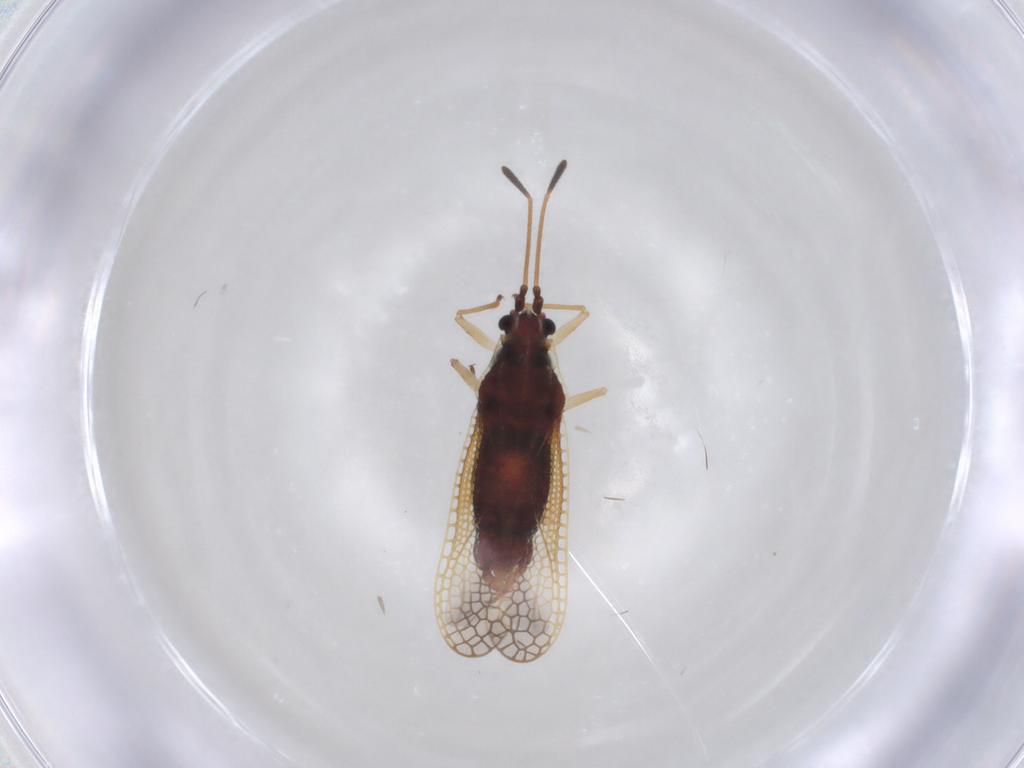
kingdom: Animalia
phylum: Arthropoda
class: Insecta
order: Hemiptera
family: Tingidae
